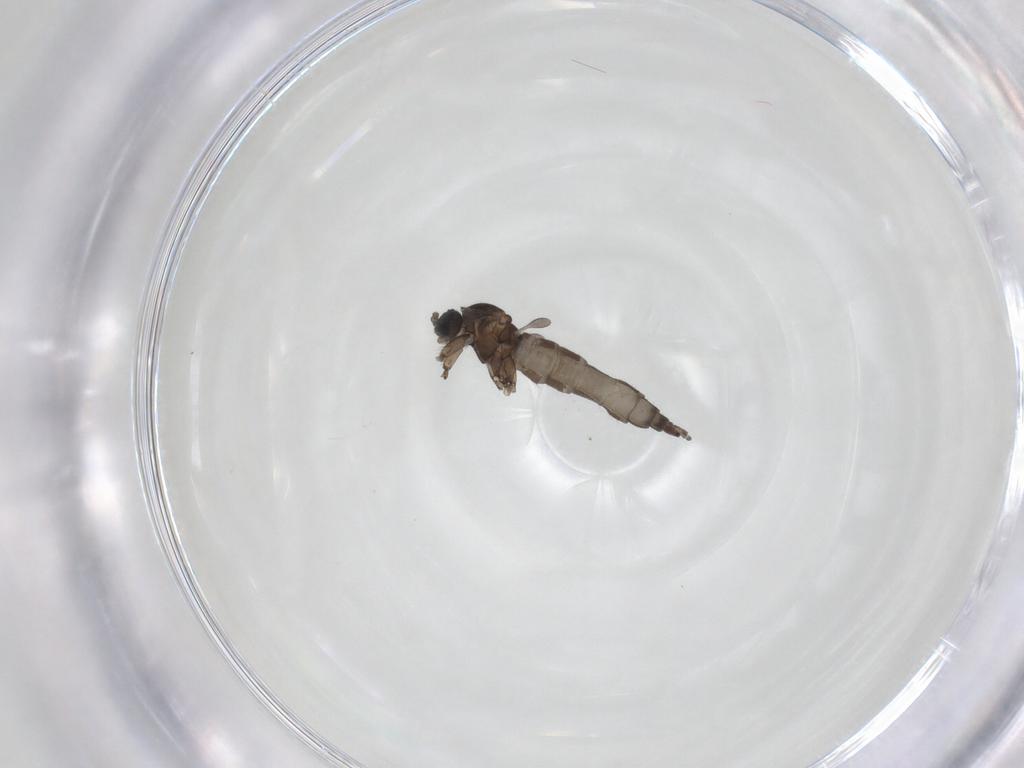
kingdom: Animalia
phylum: Arthropoda
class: Insecta
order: Diptera
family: Sciaridae
